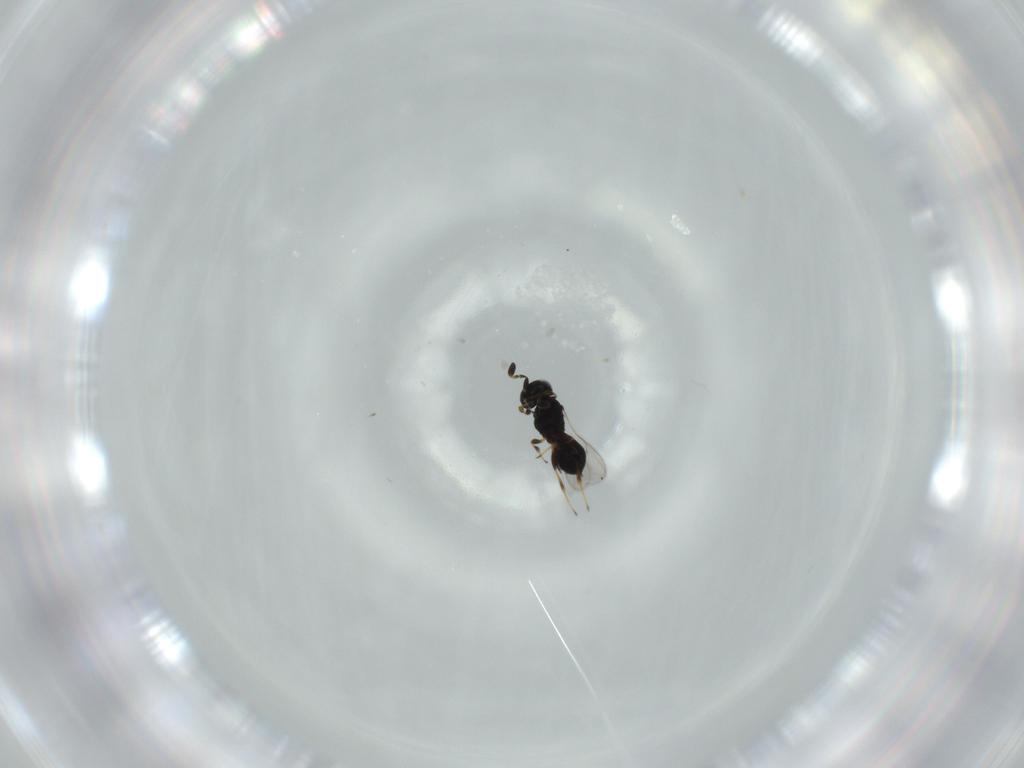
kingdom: Animalia
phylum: Arthropoda
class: Insecta
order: Hymenoptera
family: Scelionidae
